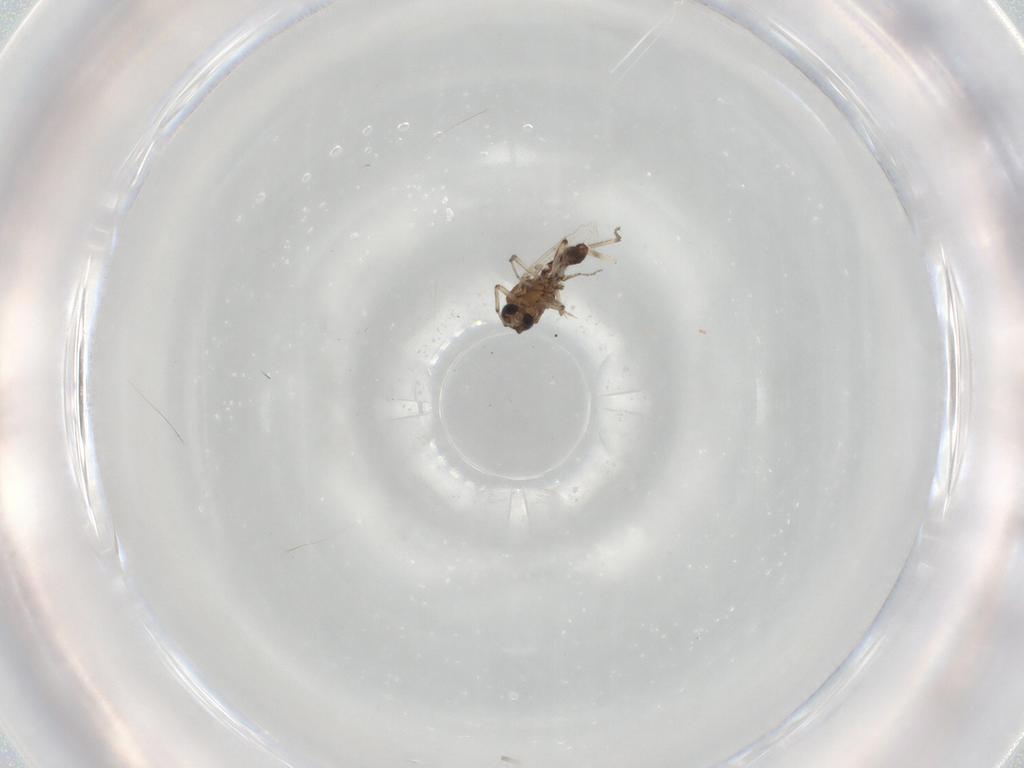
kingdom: Animalia
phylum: Arthropoda
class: Insecta
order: Diptera
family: Ceratopogonidae
